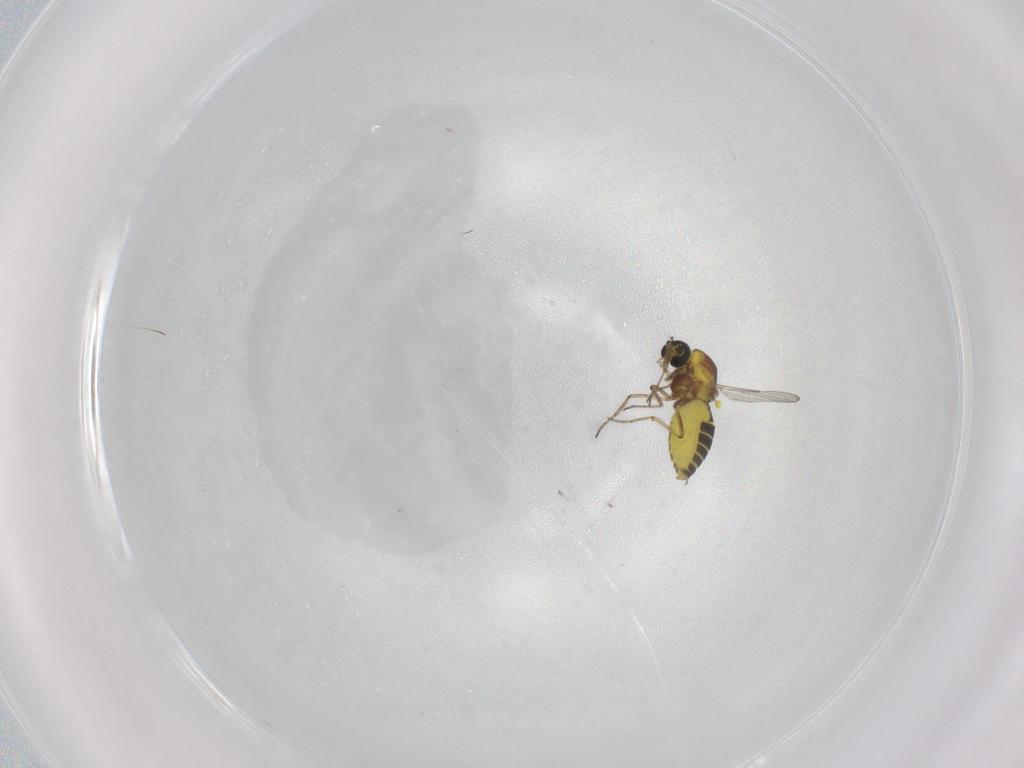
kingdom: Animalia
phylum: Arthropoda
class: Insecta
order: Diptera
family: Ceratopogonidae
